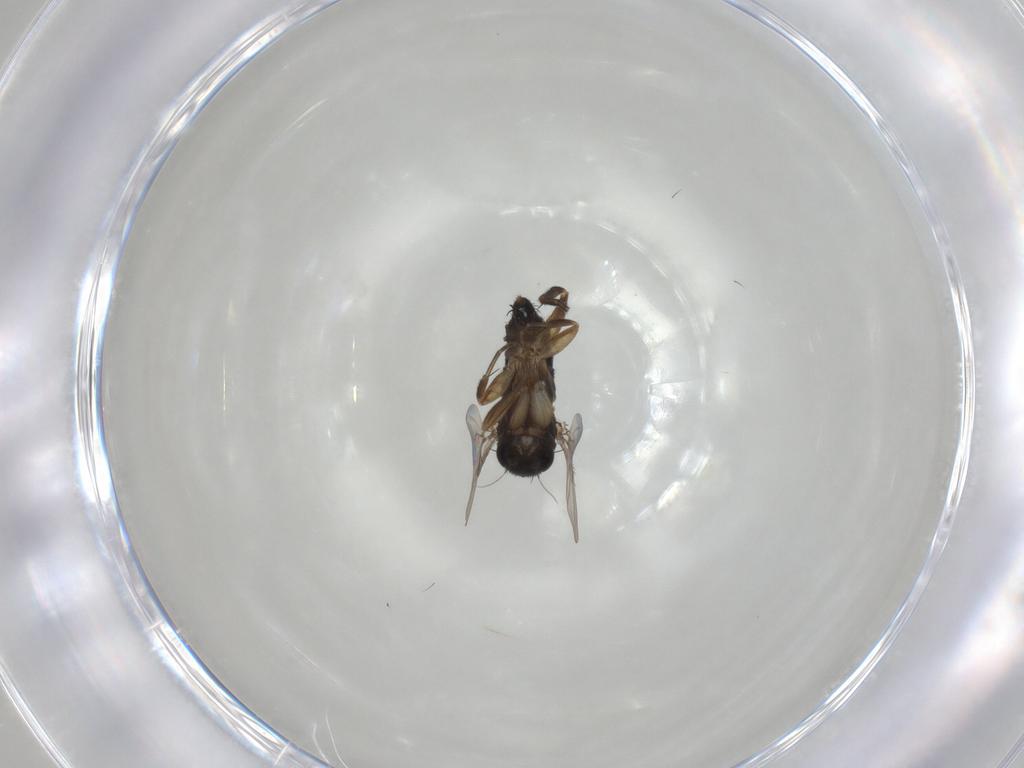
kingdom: Animalia
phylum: Arthropoda
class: Insecta
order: Diptera
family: Phoridae
